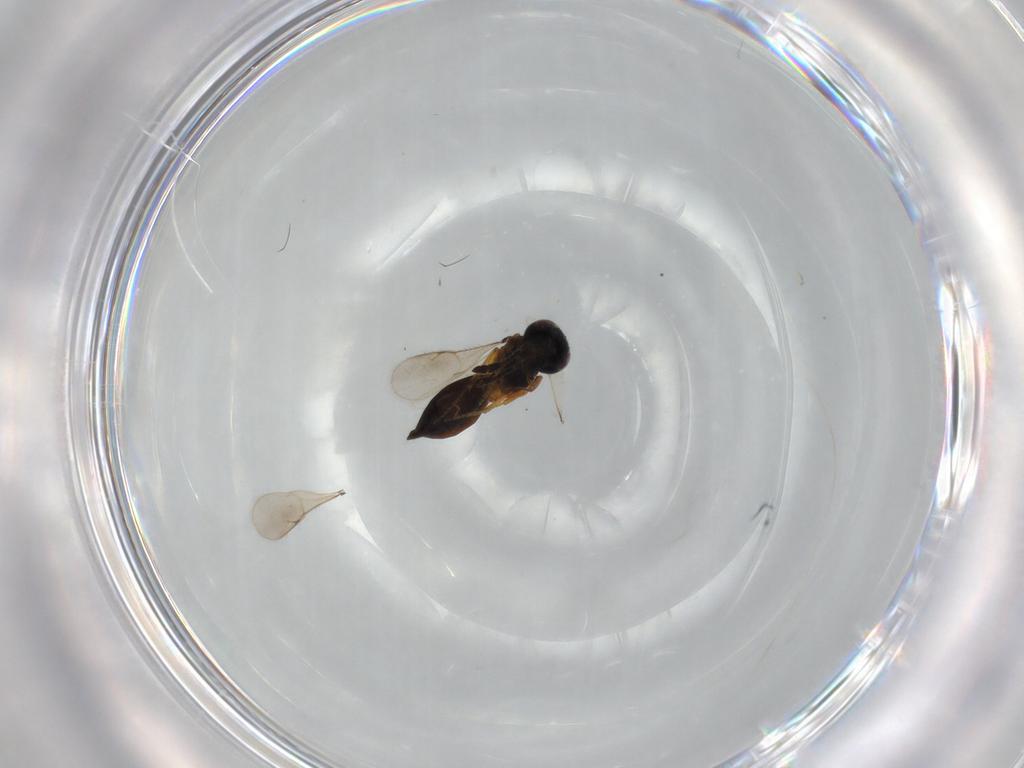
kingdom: Animalia
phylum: Arthropoda
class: Insecta
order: Hymenoptera
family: Scelionidae
